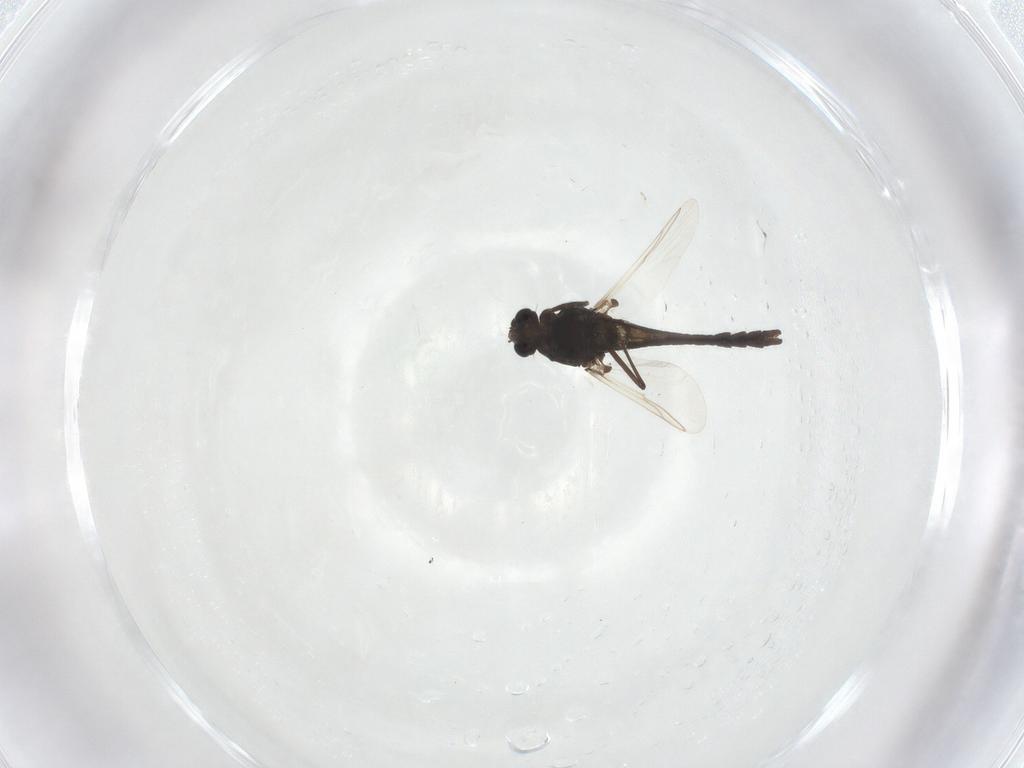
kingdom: Animalia
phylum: Arthropoda
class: Insecta
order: Diptera
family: Chironomidae
